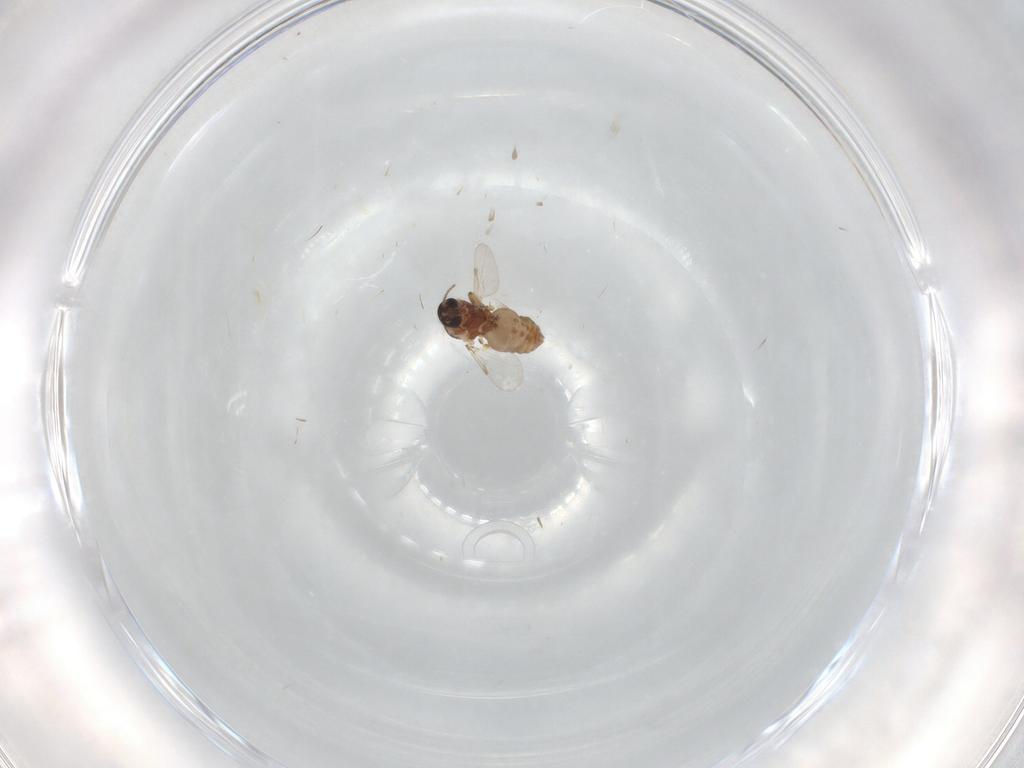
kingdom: Animalia
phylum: Arthropoda
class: Insecta
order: Diptera
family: Ceratopogonidae
